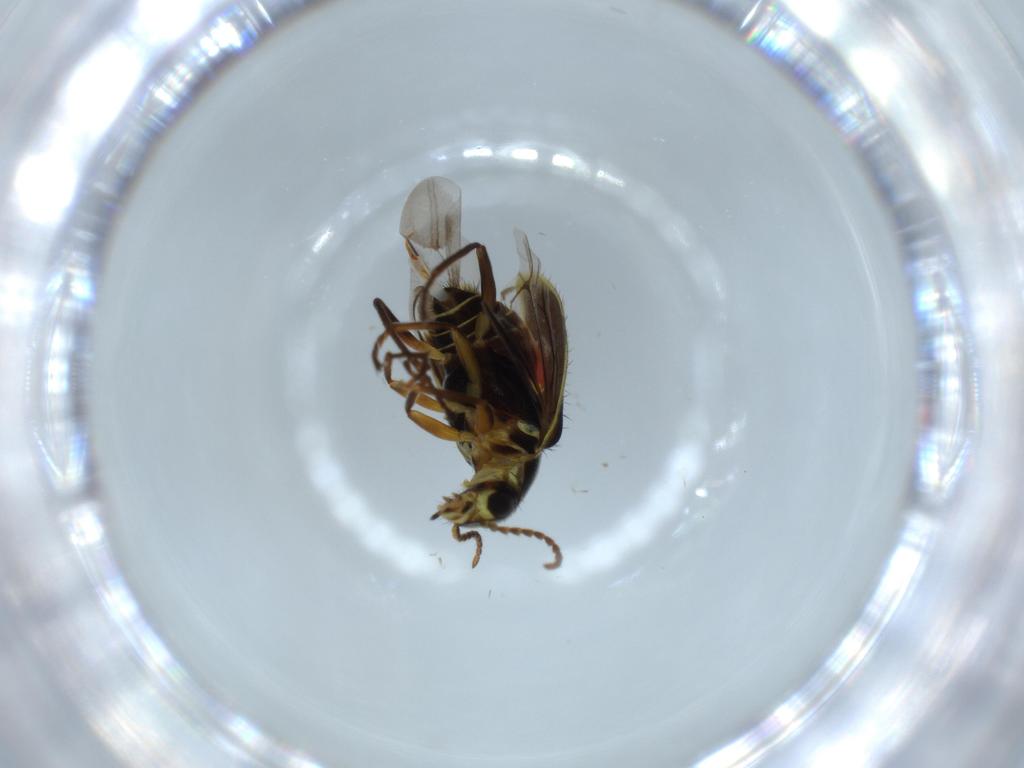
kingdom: Animalia
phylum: Arthropoda
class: Insecta
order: Coleoptera
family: Melyridae
